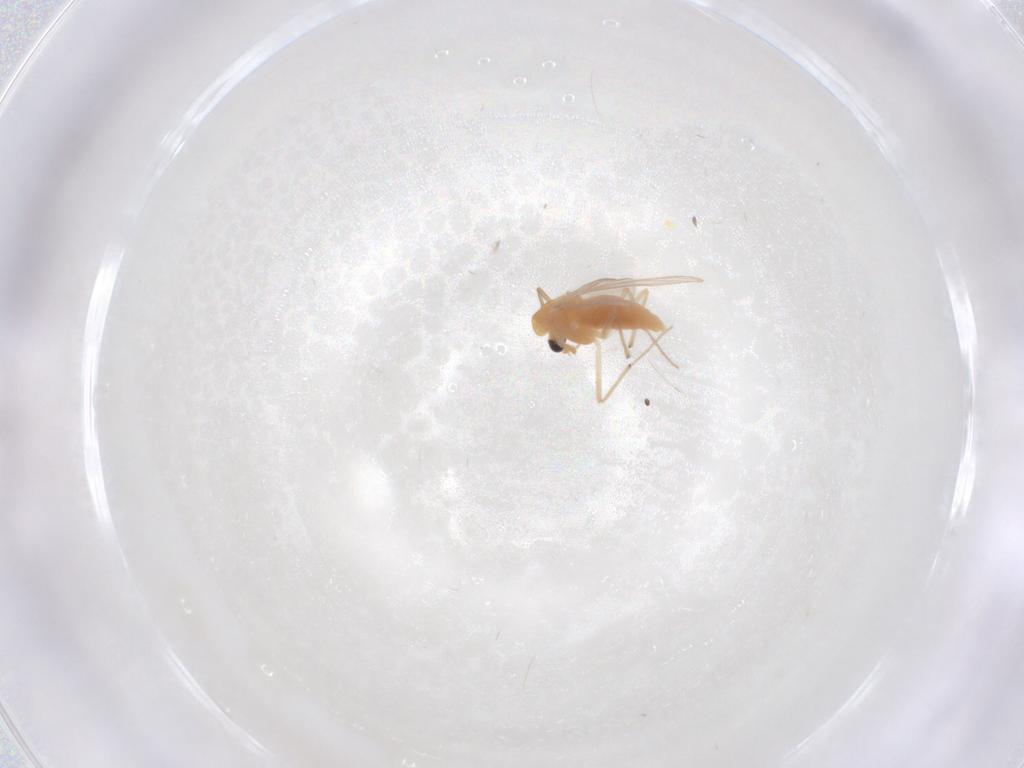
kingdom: Animalia
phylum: Arthropoda
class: Insecta
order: Diptera
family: Chironomidae
